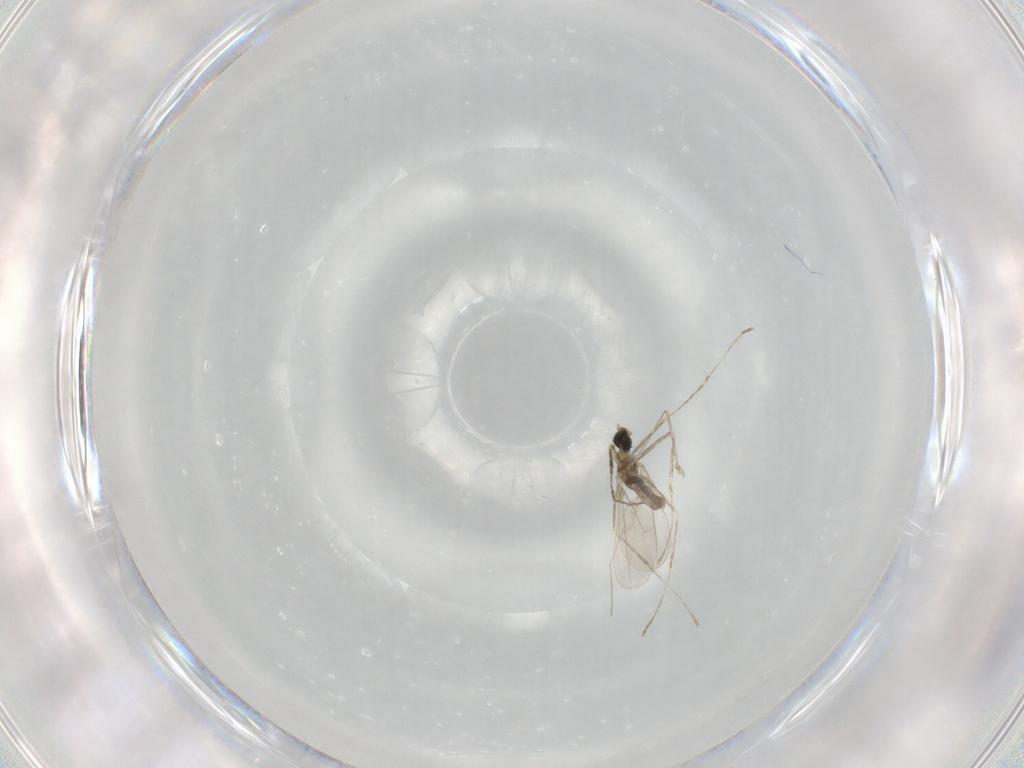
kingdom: Animalia
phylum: Arthropoda
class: Insecta
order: Diptera
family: Cecidomyiidae
